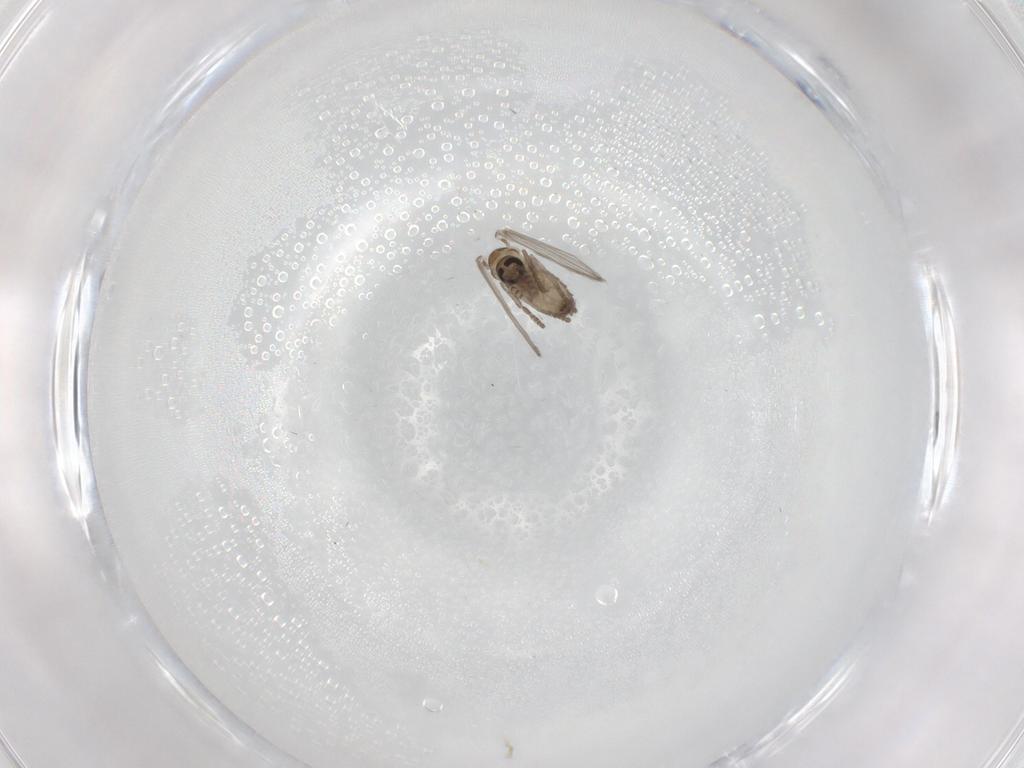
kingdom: Animalia
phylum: Arthropoda
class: Insecta
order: Diptera
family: Psychodidae
